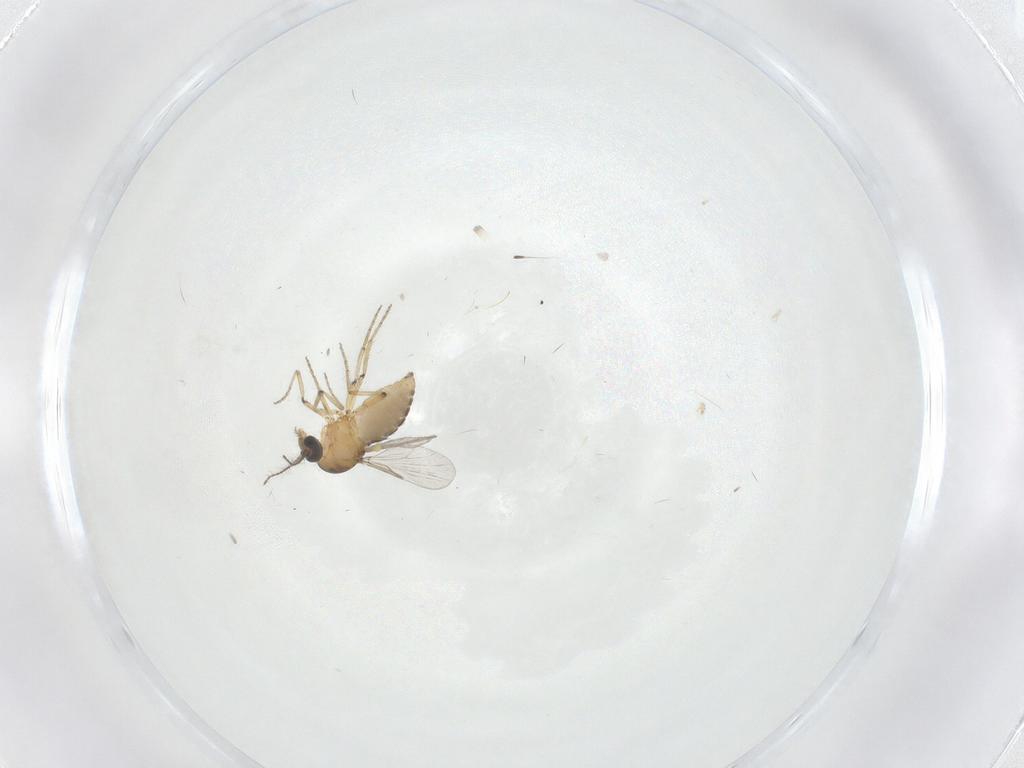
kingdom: Animalia
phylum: Arthropoda
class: Insecta
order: Diptera
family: Ceratopogonidae
